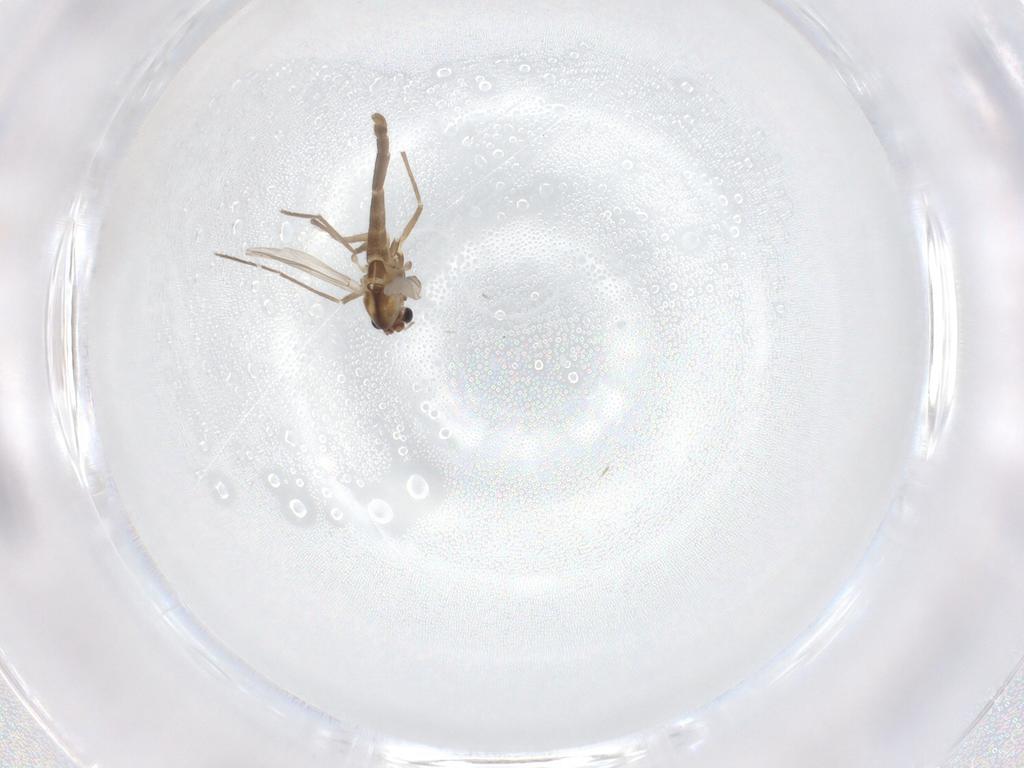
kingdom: Animalia
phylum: Arthropoda
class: Insecta
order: Diptera
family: Chironomidae
